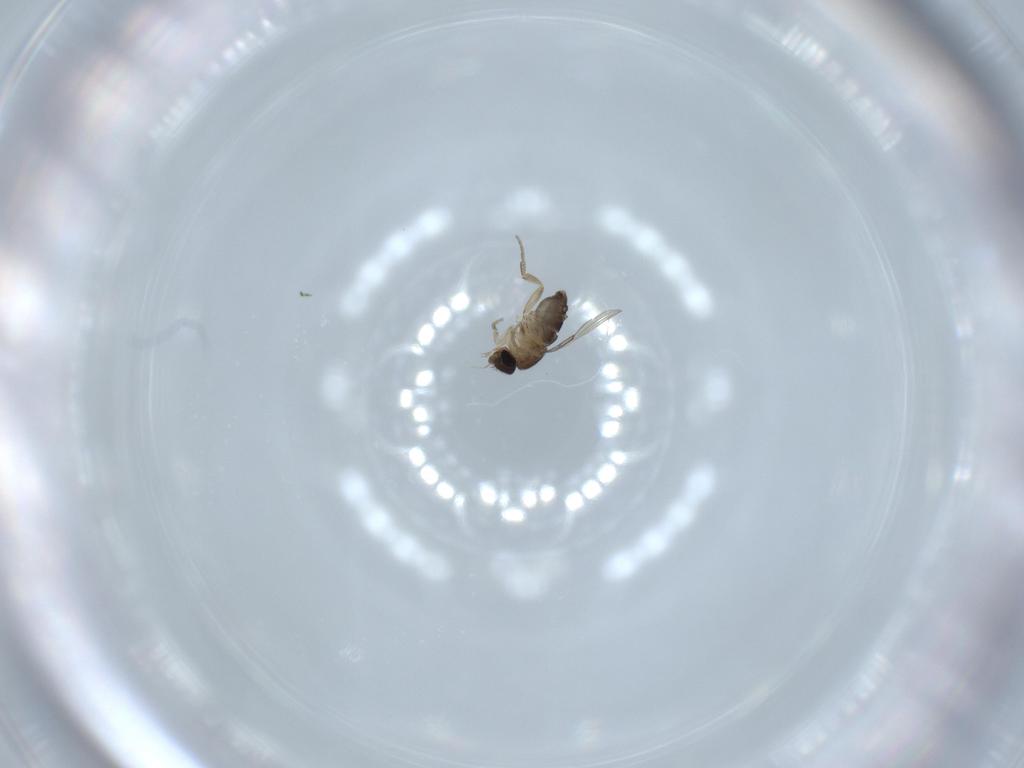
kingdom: Animalia
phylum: Arthropoda
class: Insecta
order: Diptera
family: Phoridae
